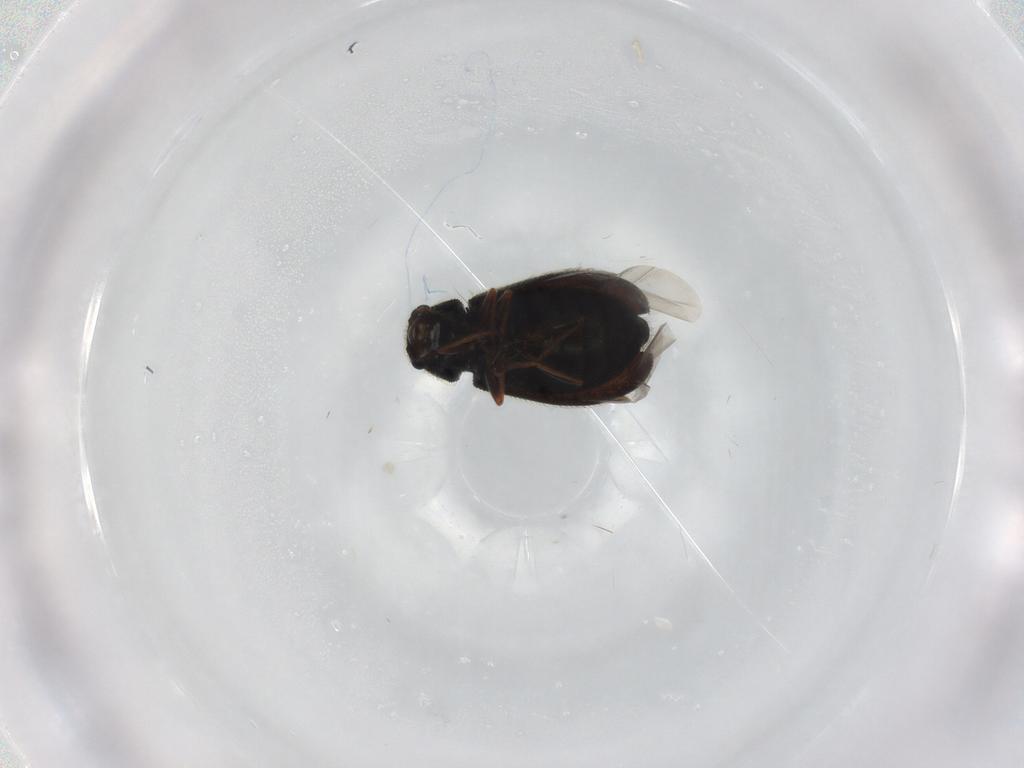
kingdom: Animalia
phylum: Arthropoda
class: Insecta
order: Coleoptera
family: Melyridae
